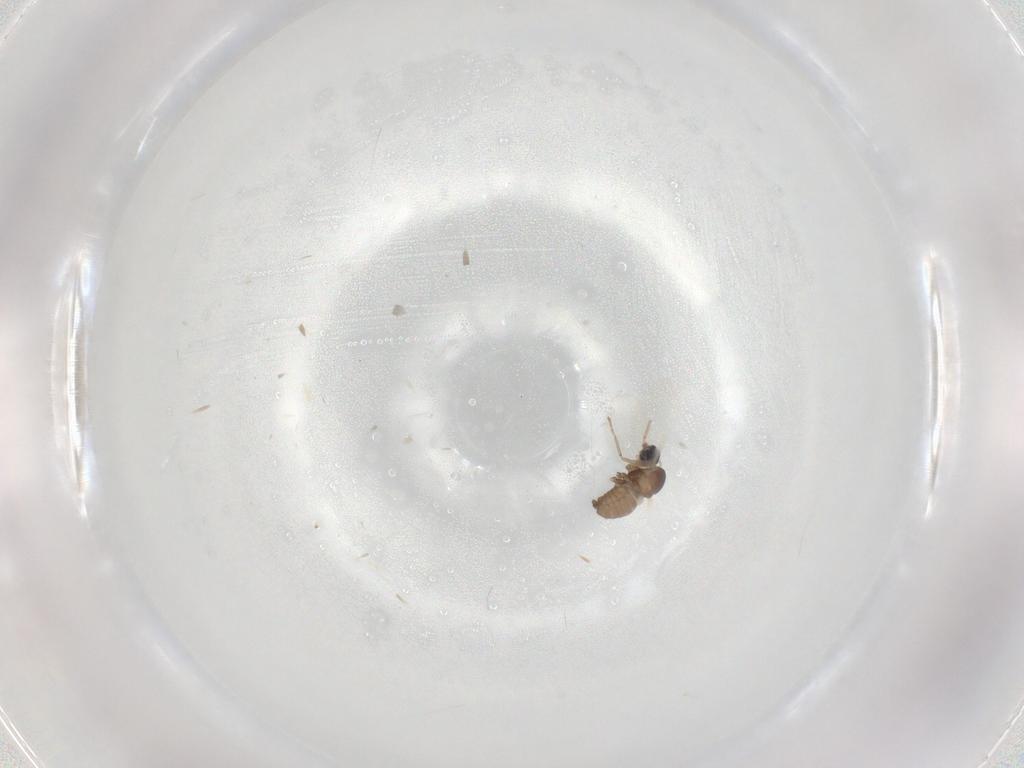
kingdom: Animalia
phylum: Arthropoda
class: Insecta
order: Diptera
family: Cecidomyiidae
